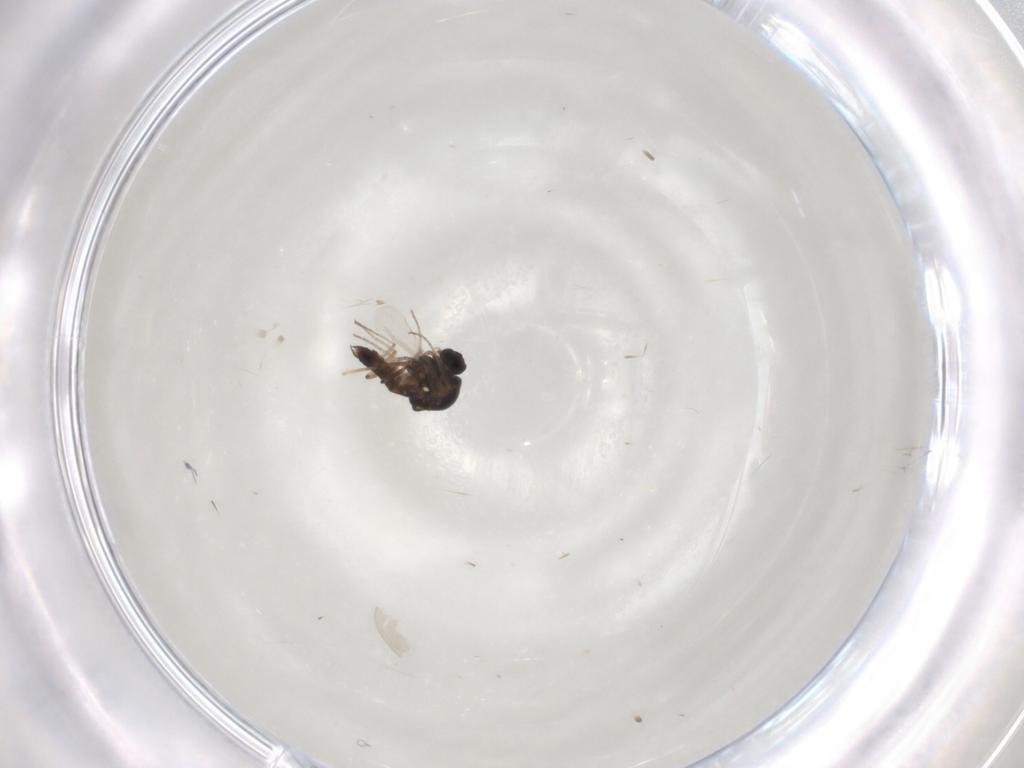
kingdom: Animalia
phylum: Arthropoda
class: Insecta
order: Diptera
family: Ceratopogonidae
